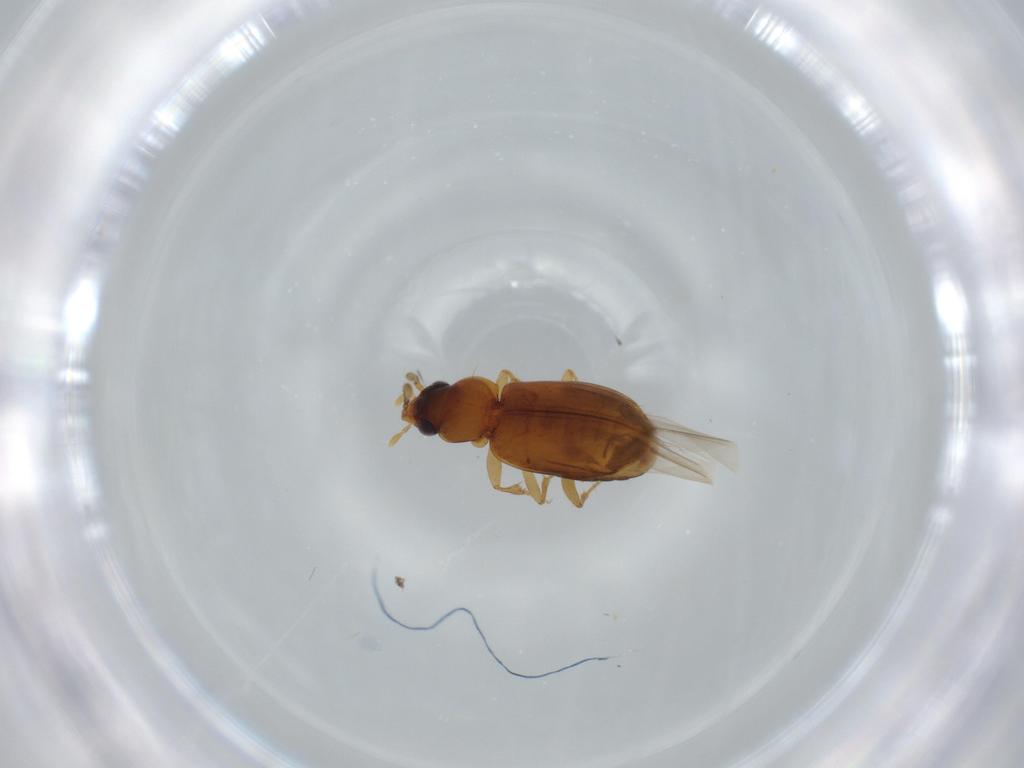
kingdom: Animalia
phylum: Arthropoda
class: Insecta
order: Coleoptera
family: Carabidae
